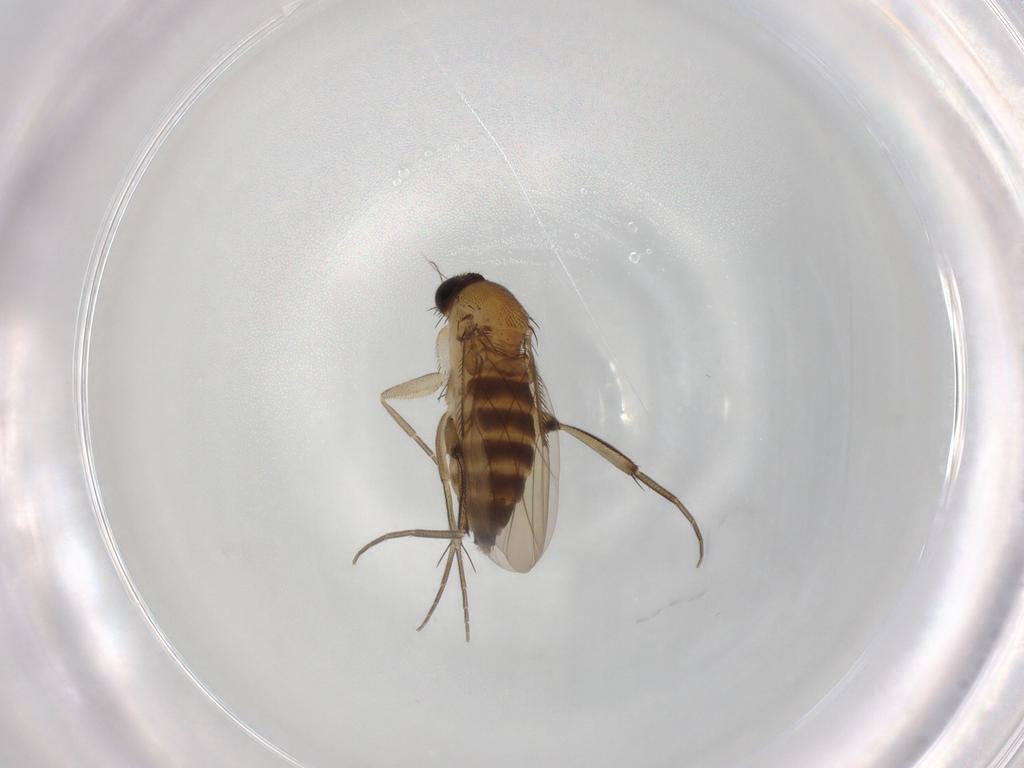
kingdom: Animalia
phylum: Arthropoda
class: Insecta
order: Diptera
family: Phoridae
